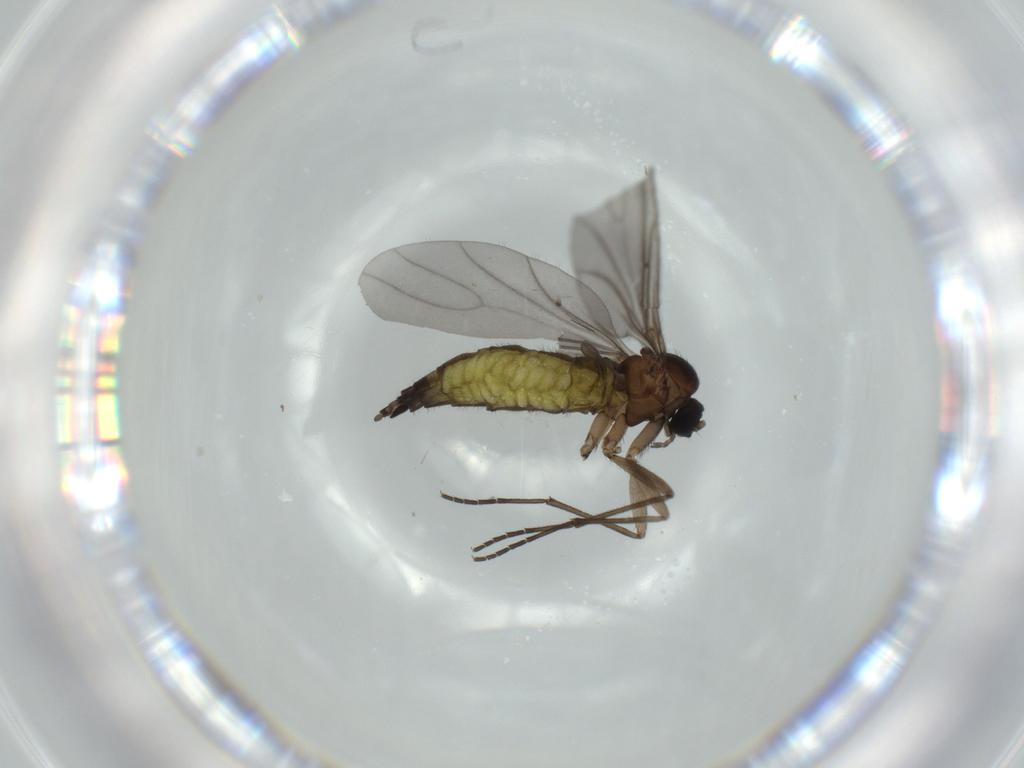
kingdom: Animalia
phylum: Arthropoda
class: Insecta
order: Diptera
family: Sciaridae
